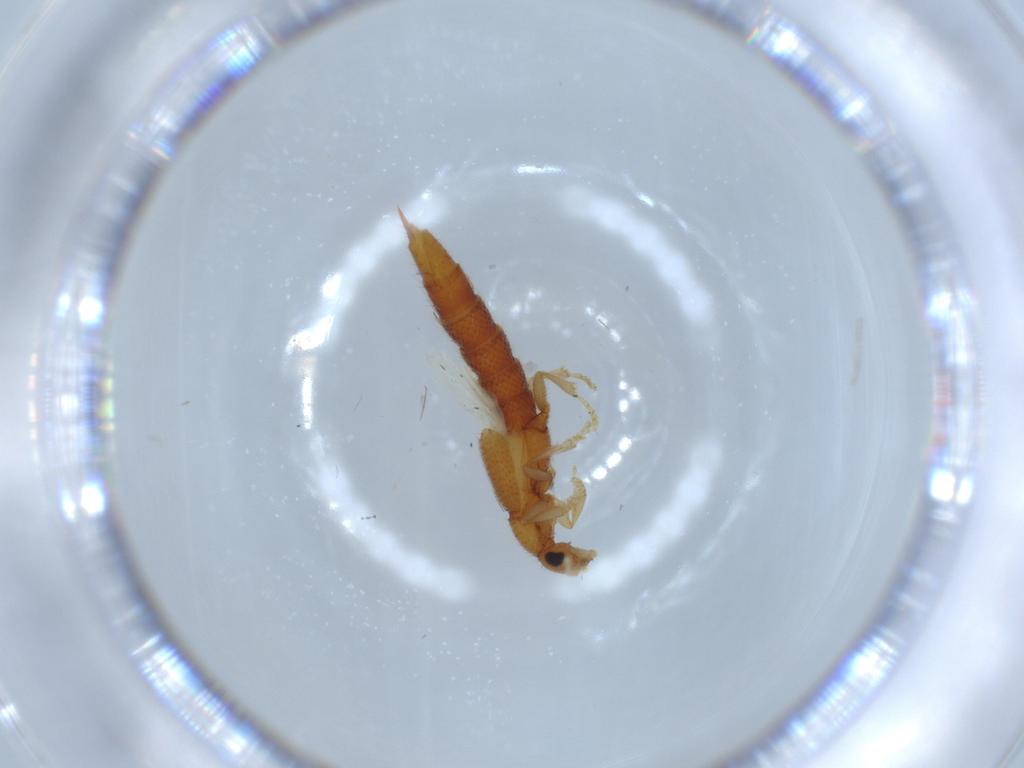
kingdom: Animalia
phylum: Arthropoda
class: Insecta
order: Coleoptera
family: Staphylinidae
